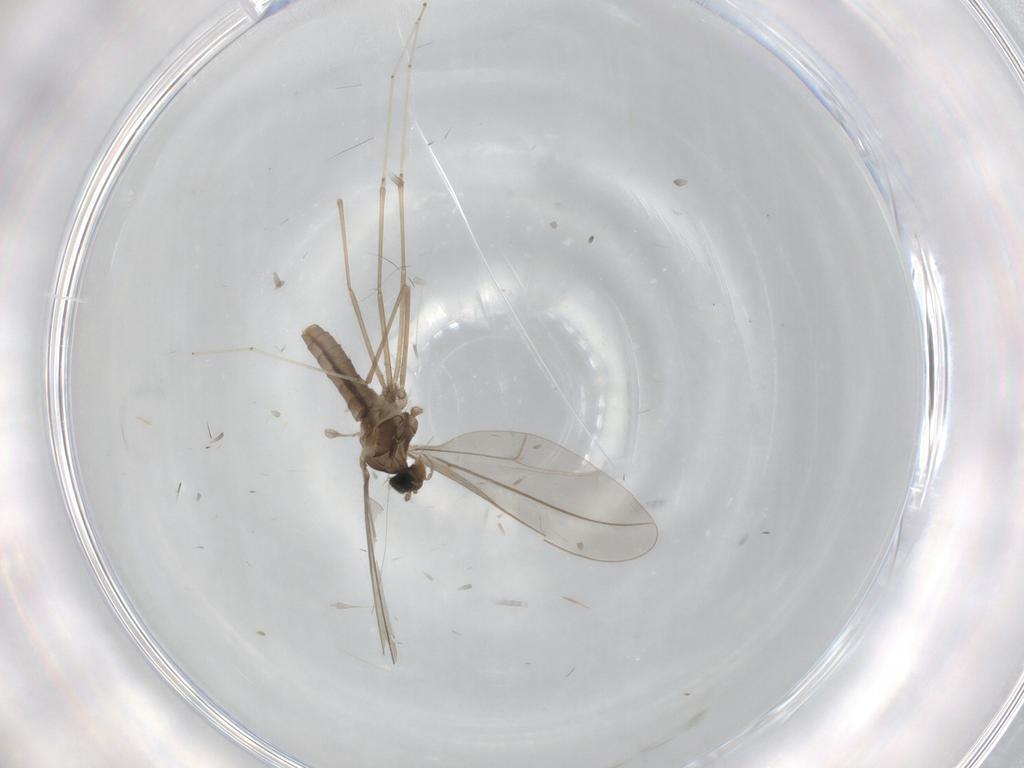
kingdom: Animalia
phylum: Arthropoda
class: Insecta
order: Diptera
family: Cecidomyiidae
